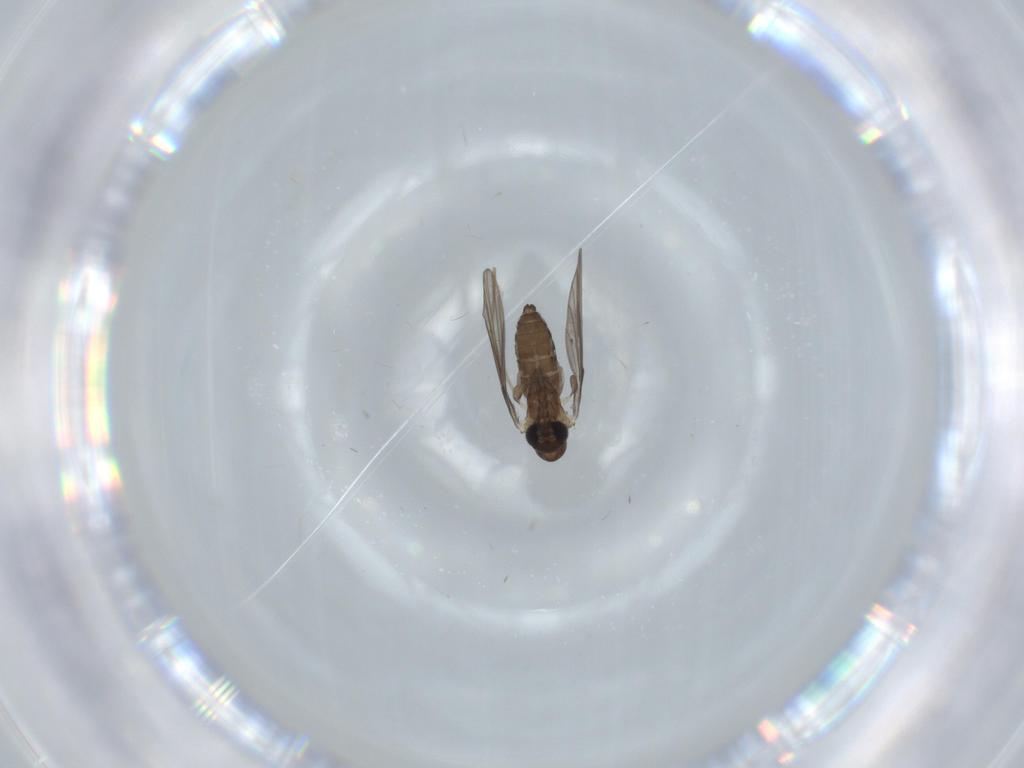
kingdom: Animalia
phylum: Arthropoda
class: Insecta
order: Diptera
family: Psychodidae
